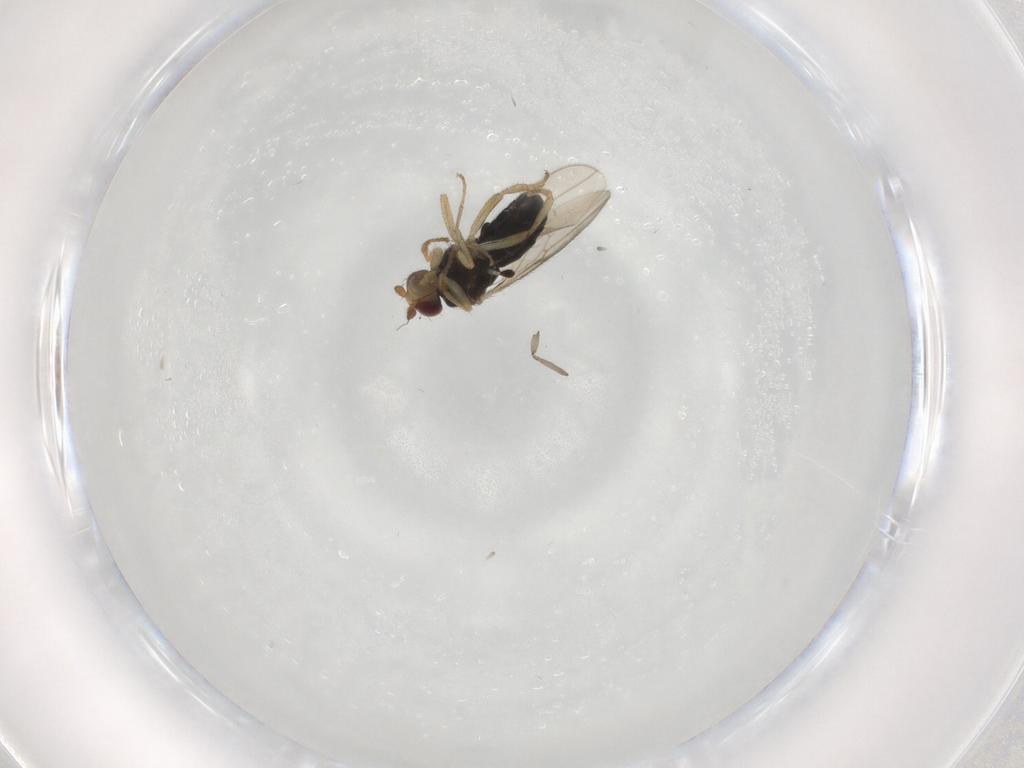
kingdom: Animalia
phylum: Arthropoda
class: Insecta
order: Diptera
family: Sphaeroceridae
